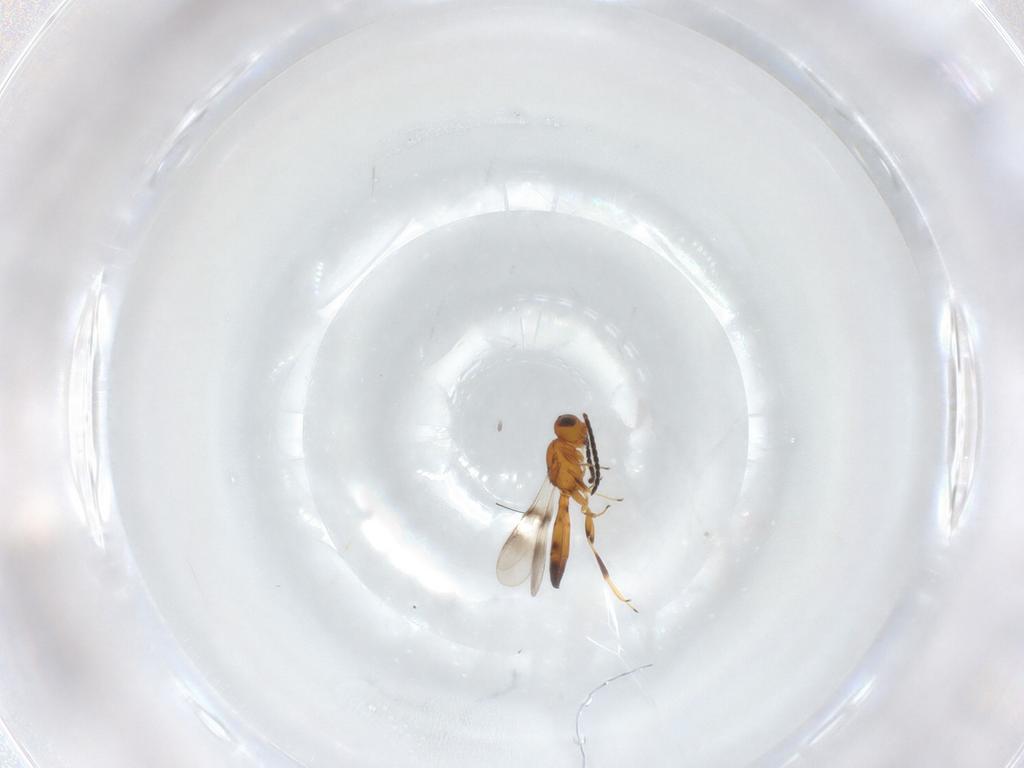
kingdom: Animalia
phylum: Arthropoda
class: Insecta
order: Hymenoptera
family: Scelionidae
